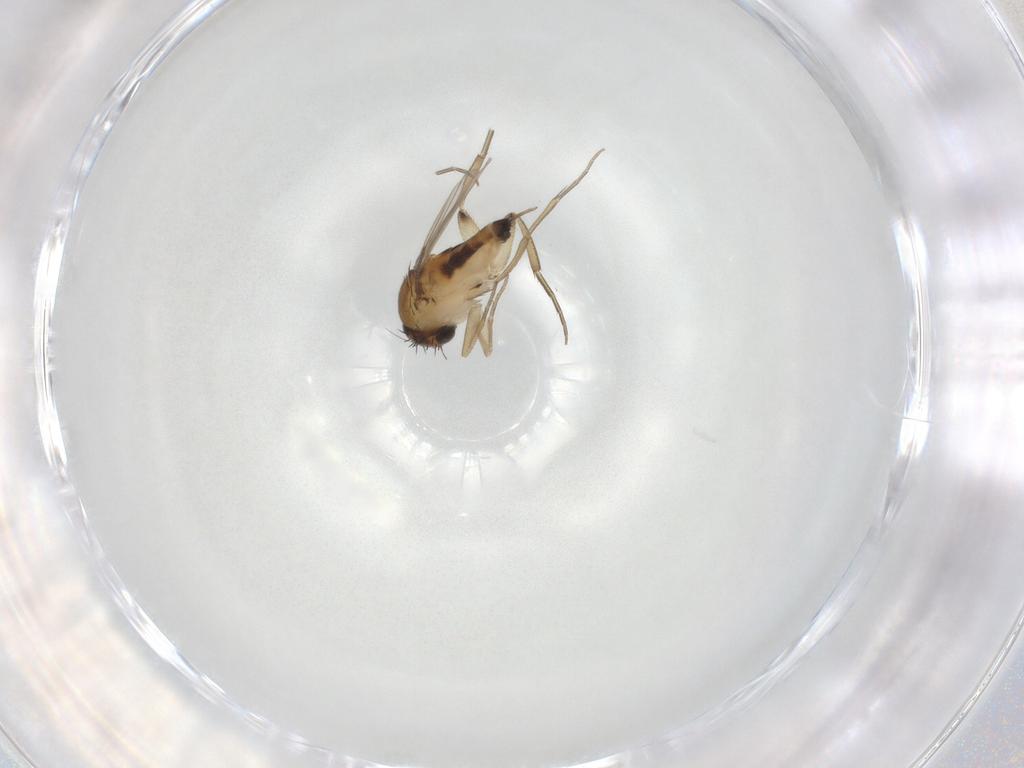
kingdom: Animalia
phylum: Arthropoda
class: Insecta
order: Diptera
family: Phoridae
